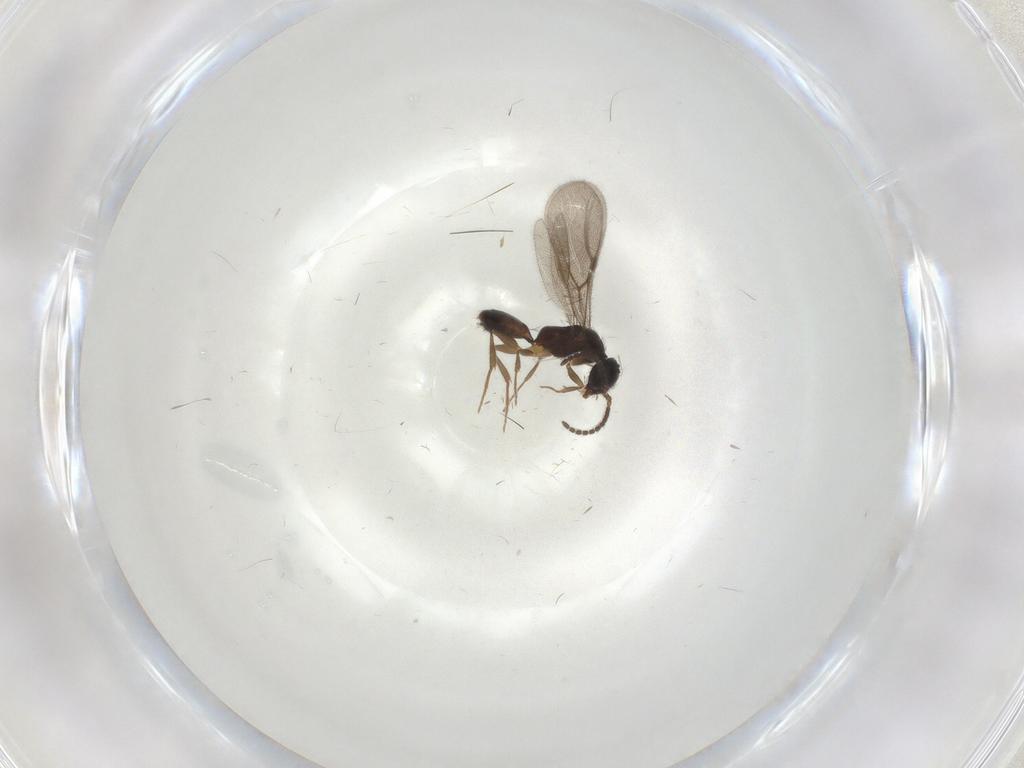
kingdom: Animalia
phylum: Arthropoda
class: Insecta
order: Hymenoptera
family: Bethylidae
